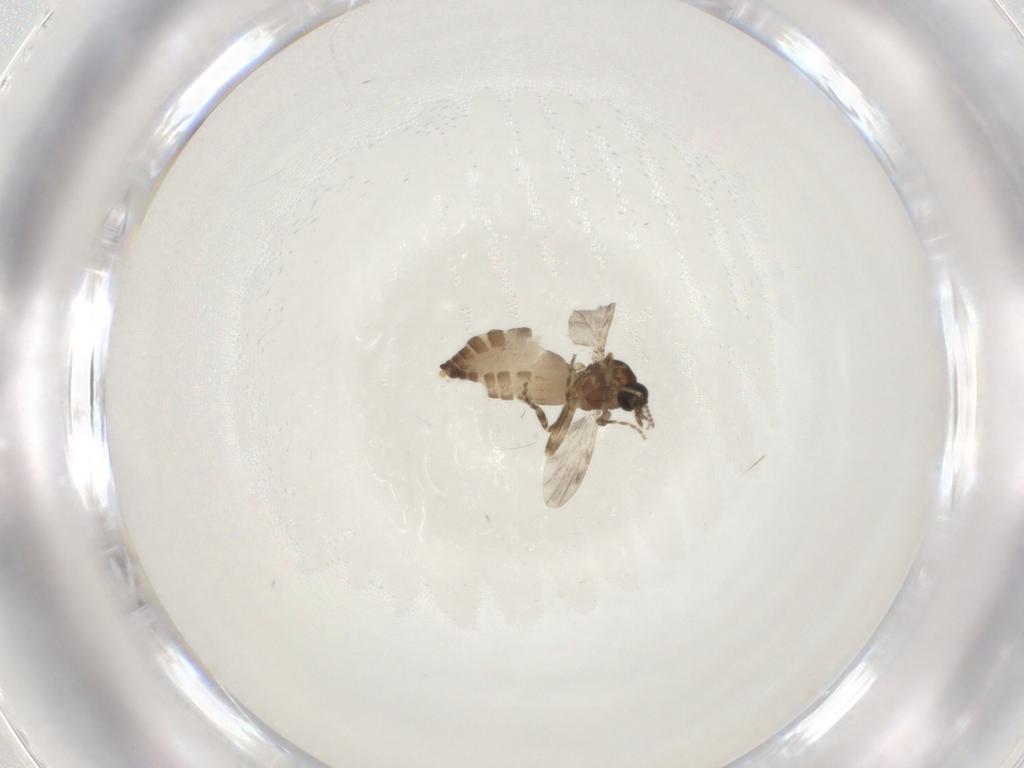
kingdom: Animalia
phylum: Arthropoda
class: Insecta
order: Diptera
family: Ceratopogonidae
